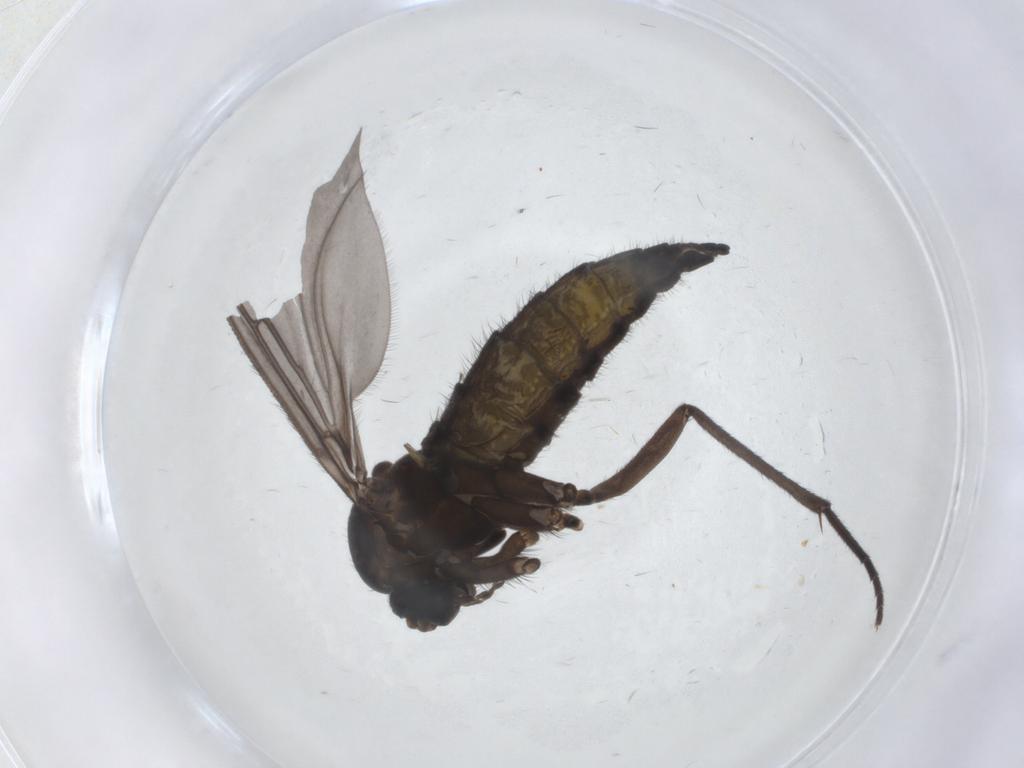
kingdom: Animalia
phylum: Arthropoda
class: Insecta
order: Diptera
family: Sciaridae
